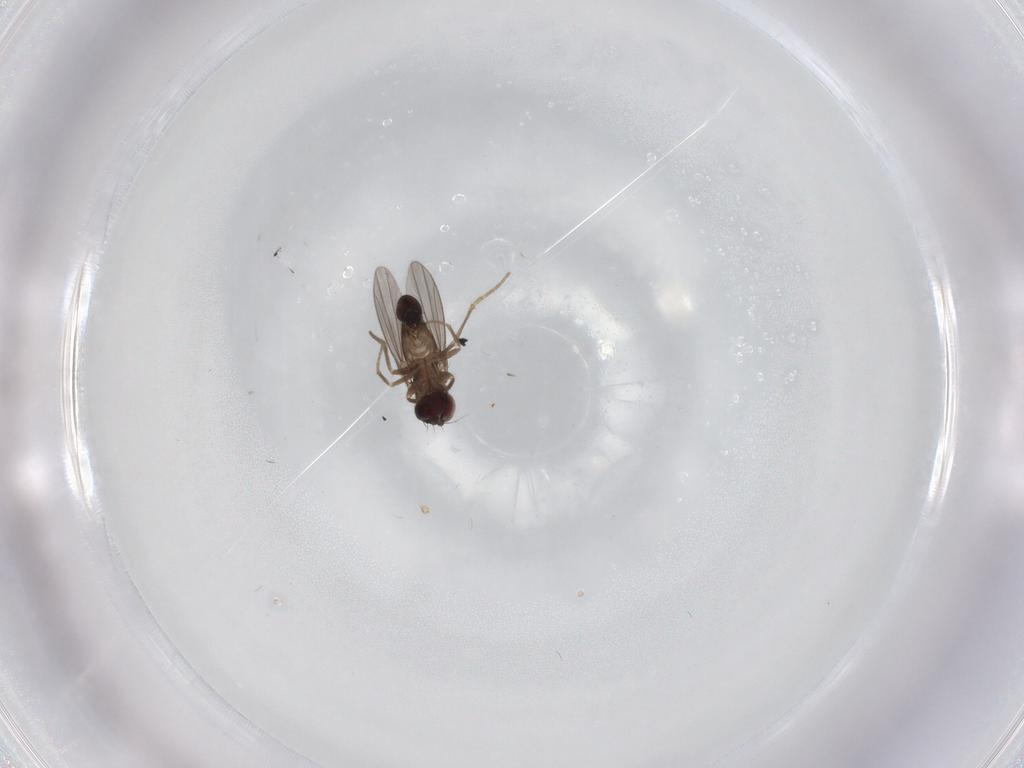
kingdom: Animalia
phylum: Arthropoda
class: Insecta
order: Diptera
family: Dolichopodidae
